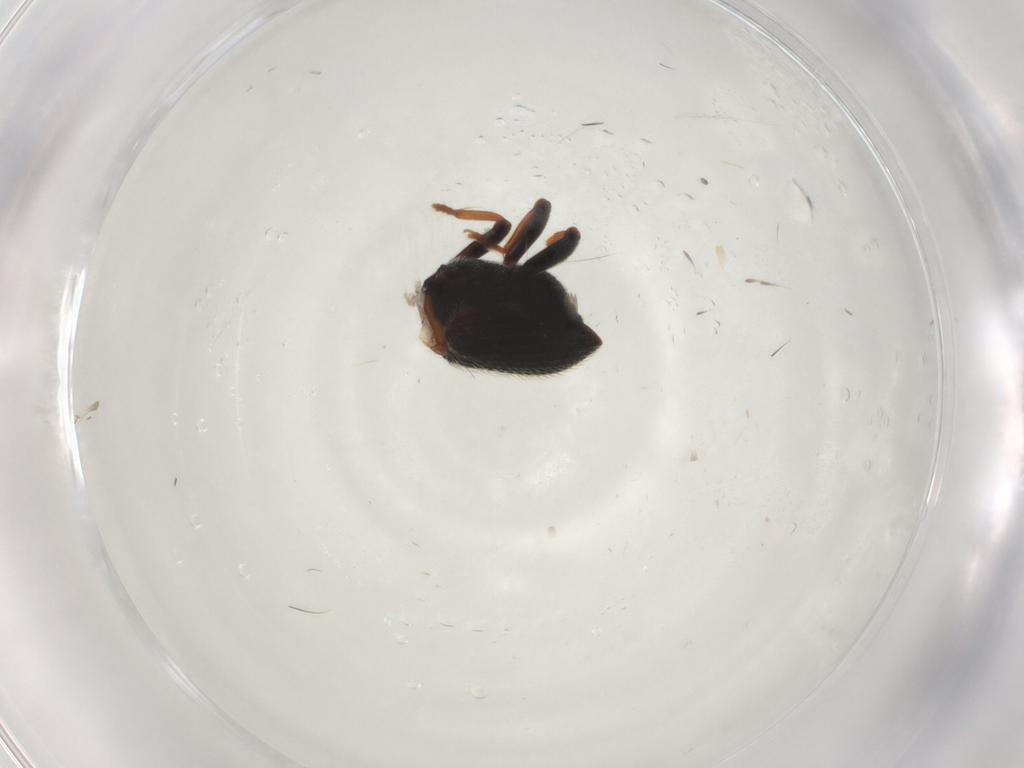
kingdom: Animalia
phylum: Arthropoda
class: Insecta
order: Coleoptera
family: Curculionidae
